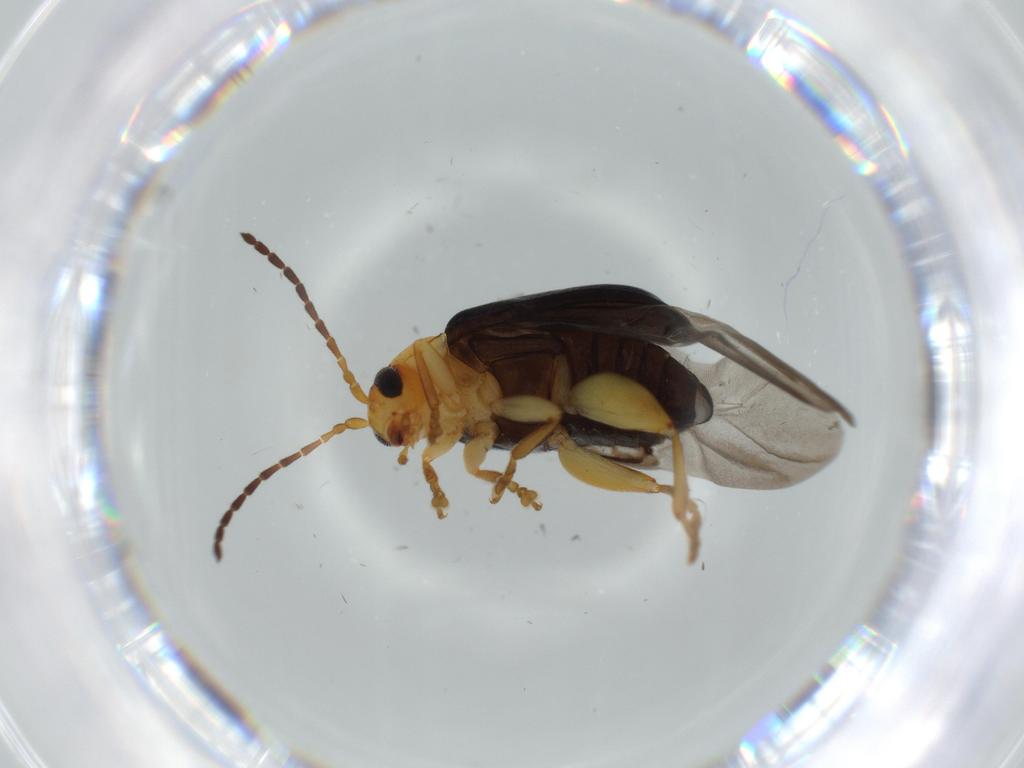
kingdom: Animalia
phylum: Arthropoda
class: Insecta
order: Coleoptera
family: Chrysomelidae
